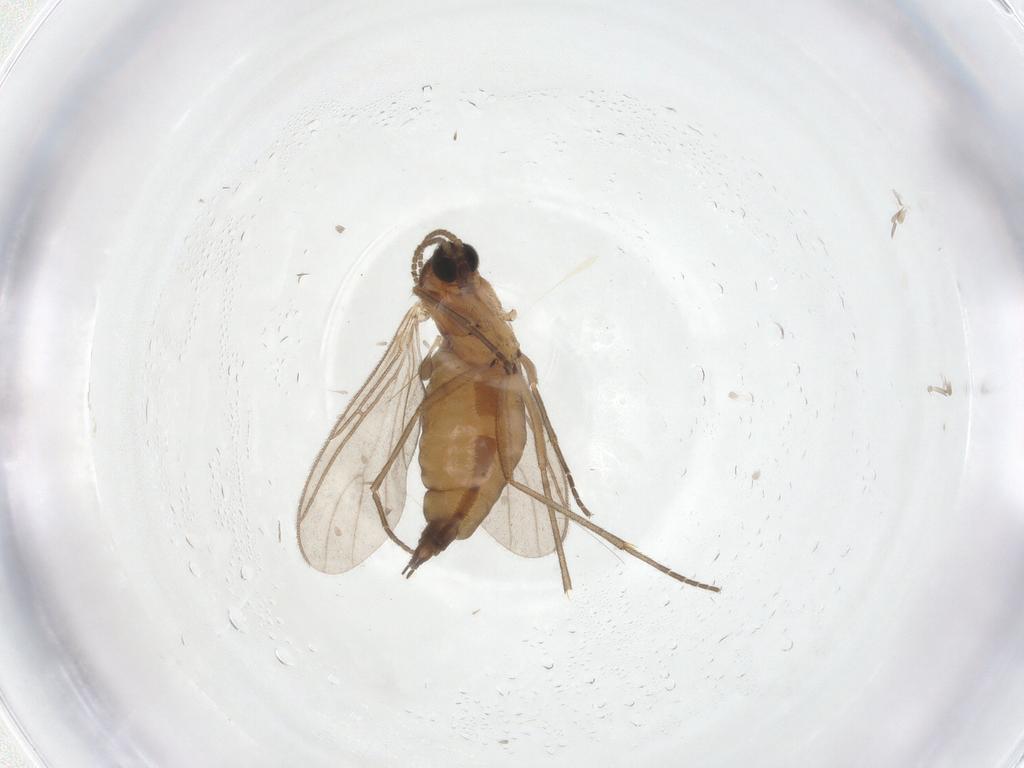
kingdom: Animalia
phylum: Arthropoda
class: Insecta
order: Diptera
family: Sciaridae
